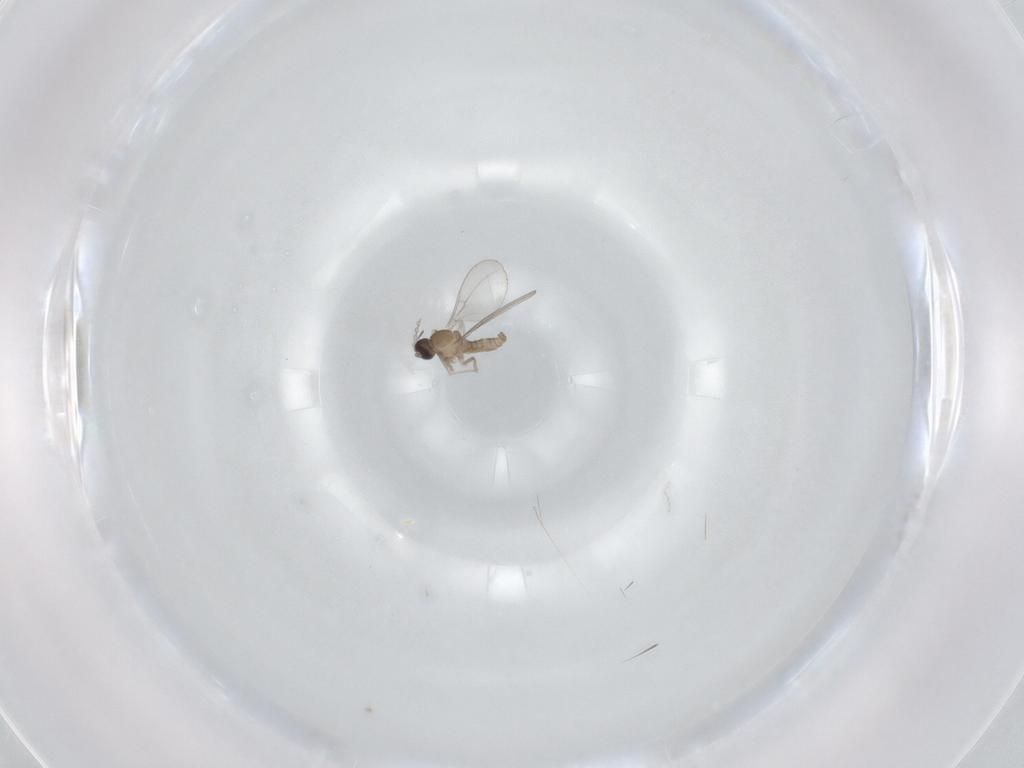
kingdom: Animalia
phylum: Arthropoda
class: Insecta
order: Diptera
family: Cecidomyiidae
